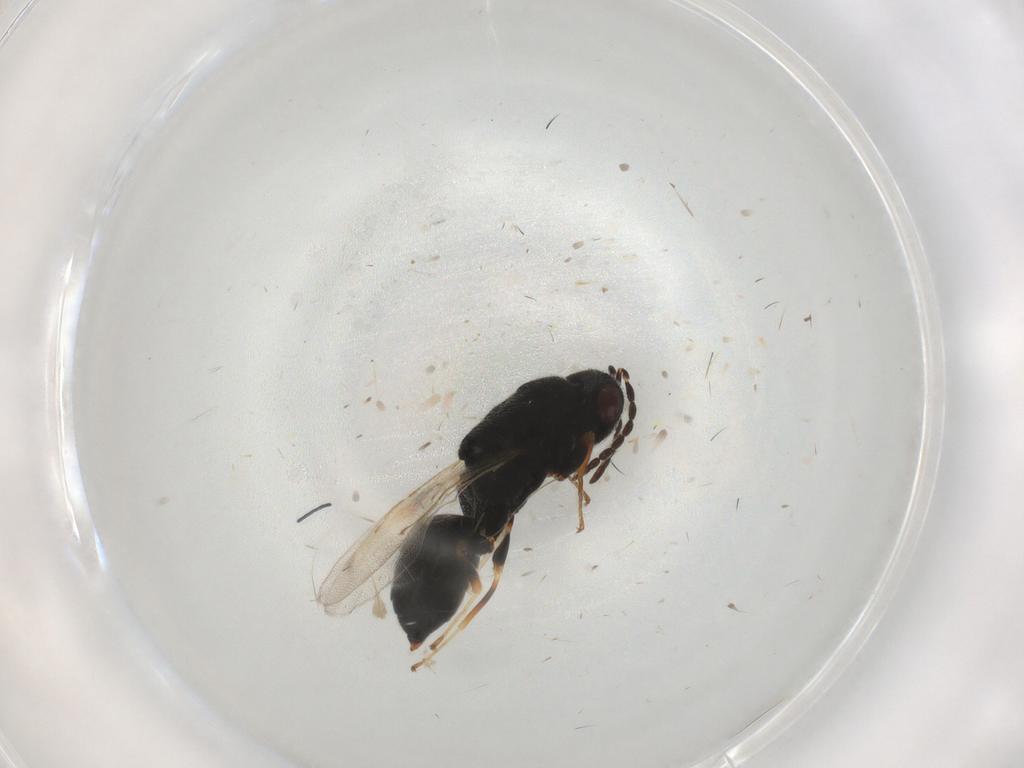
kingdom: Animalia
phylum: Arthropoda
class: Insecta
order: Hymenoptera
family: Eurytomidae
